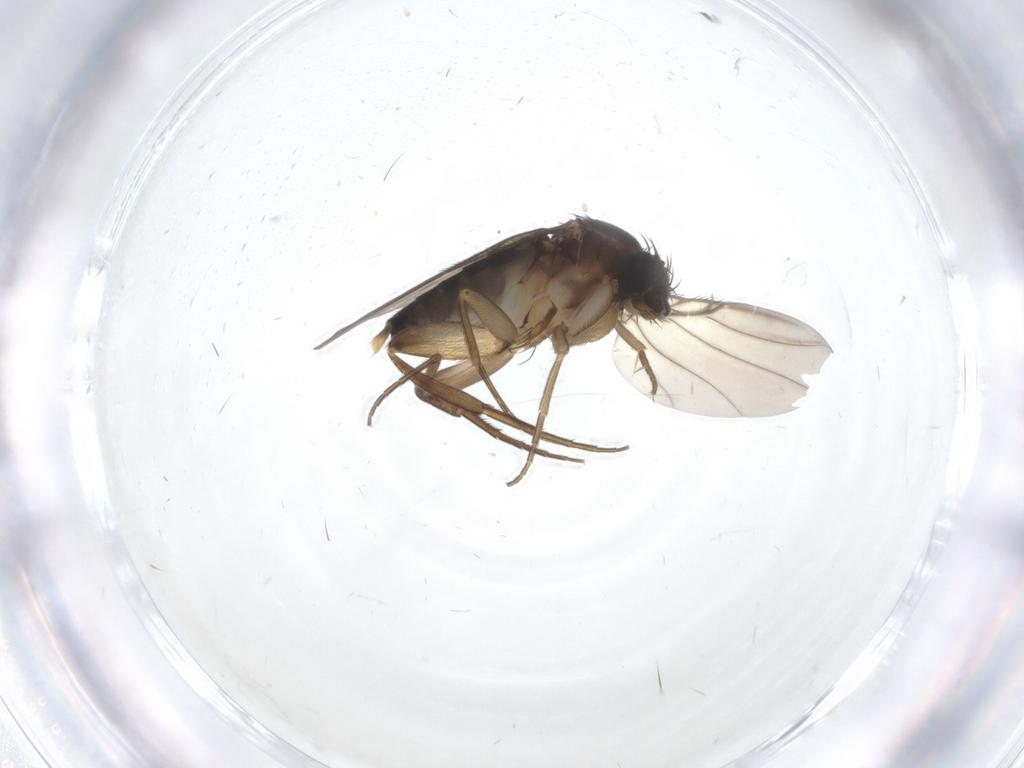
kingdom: Animalia
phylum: Arthropoda
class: Insecta
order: Diptera
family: Phoridae
